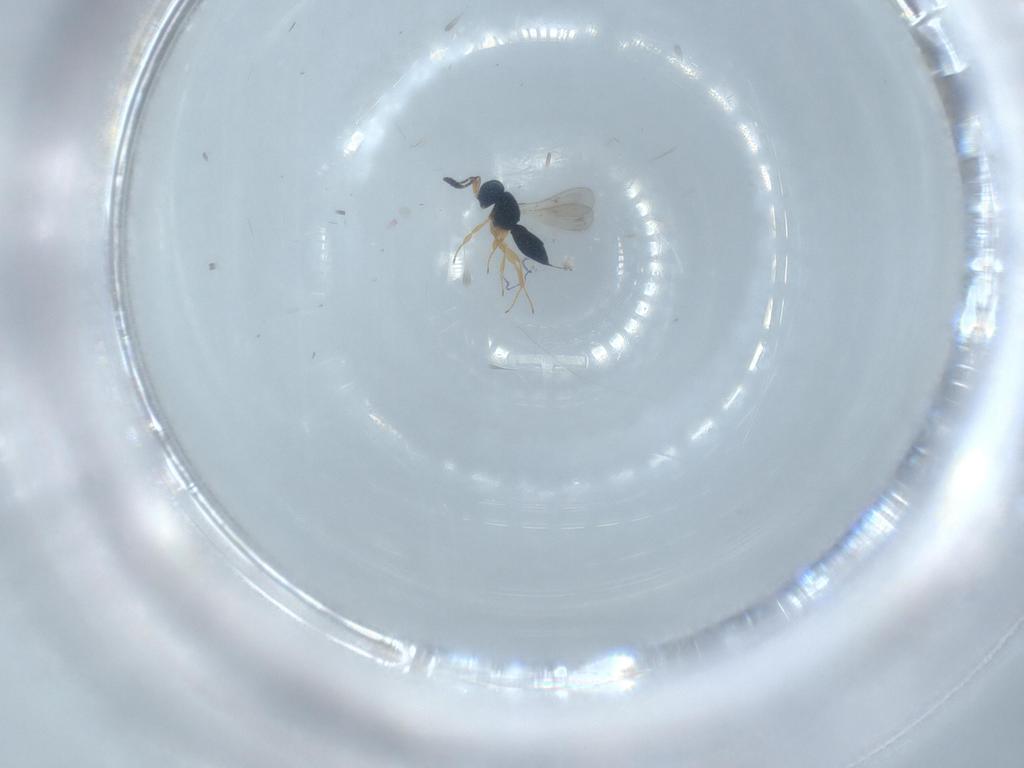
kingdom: Animalia
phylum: Arthropoda
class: Insecta
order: Hymenoptera
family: Scelionidae
